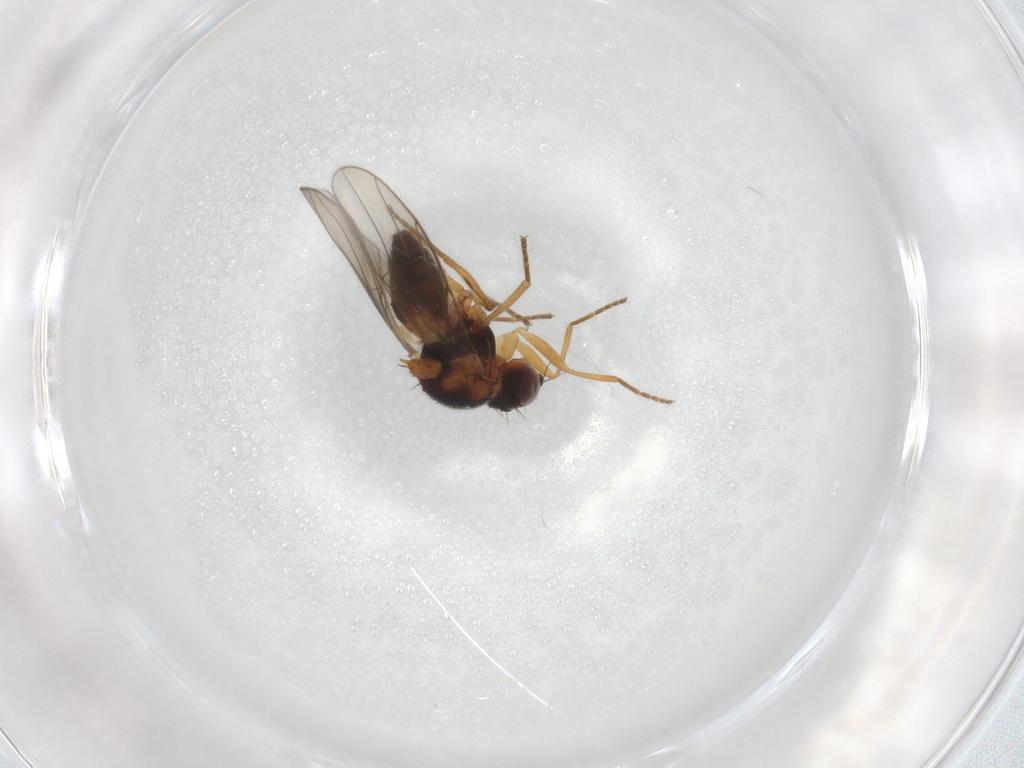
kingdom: Animalia
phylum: Arthropoda
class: Insecta
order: Diptera
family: Chloropidae
